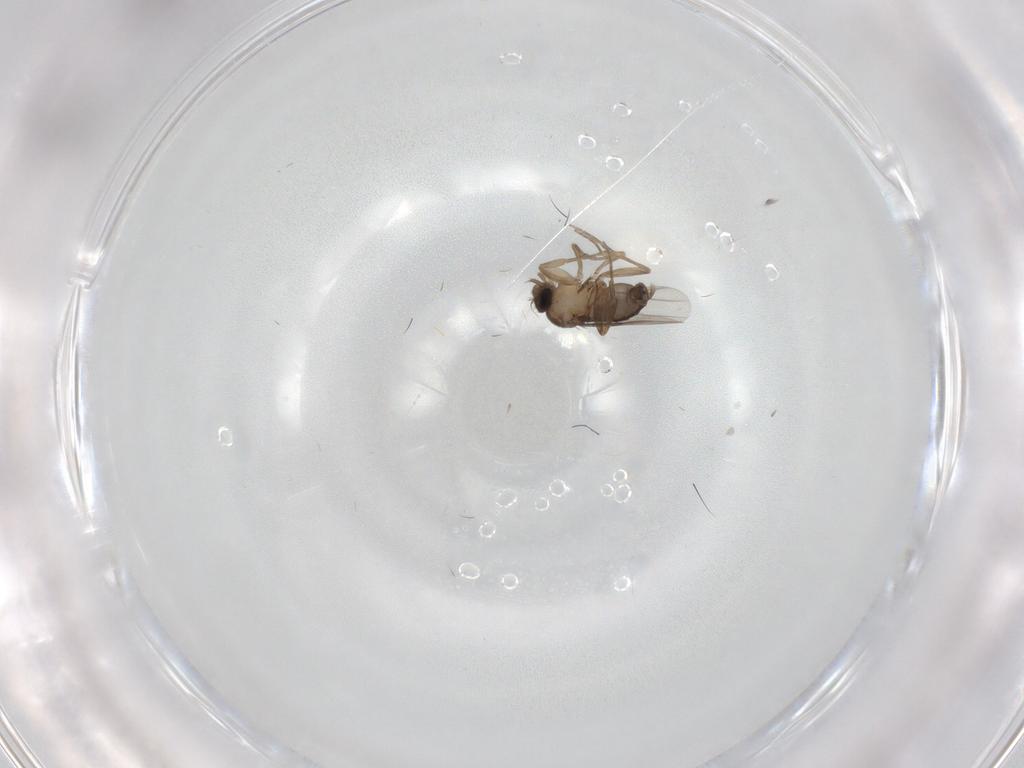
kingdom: Animalia
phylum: Arthropoda
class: Insecta
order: Diptera
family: Phoridae
